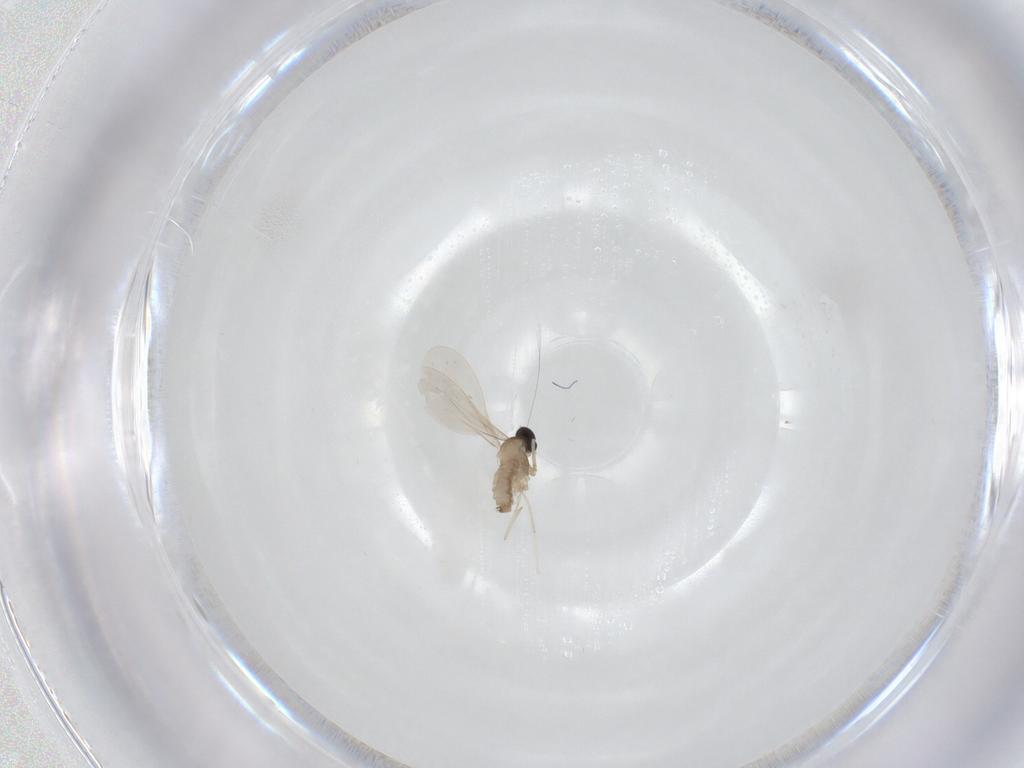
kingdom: Animalia
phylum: Arthropoda
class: Insecta
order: Diptera
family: Cecidomyiidae
